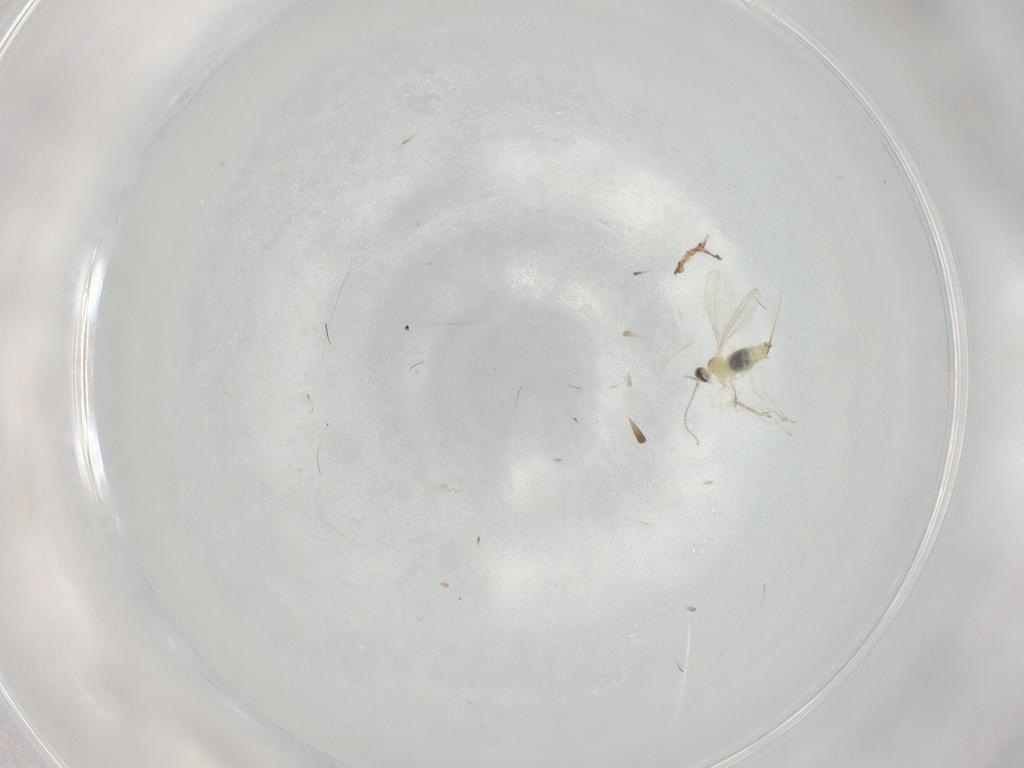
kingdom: Animalia
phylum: Arthropoda
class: Insecta
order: Diptera
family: Cecidomyiidae
